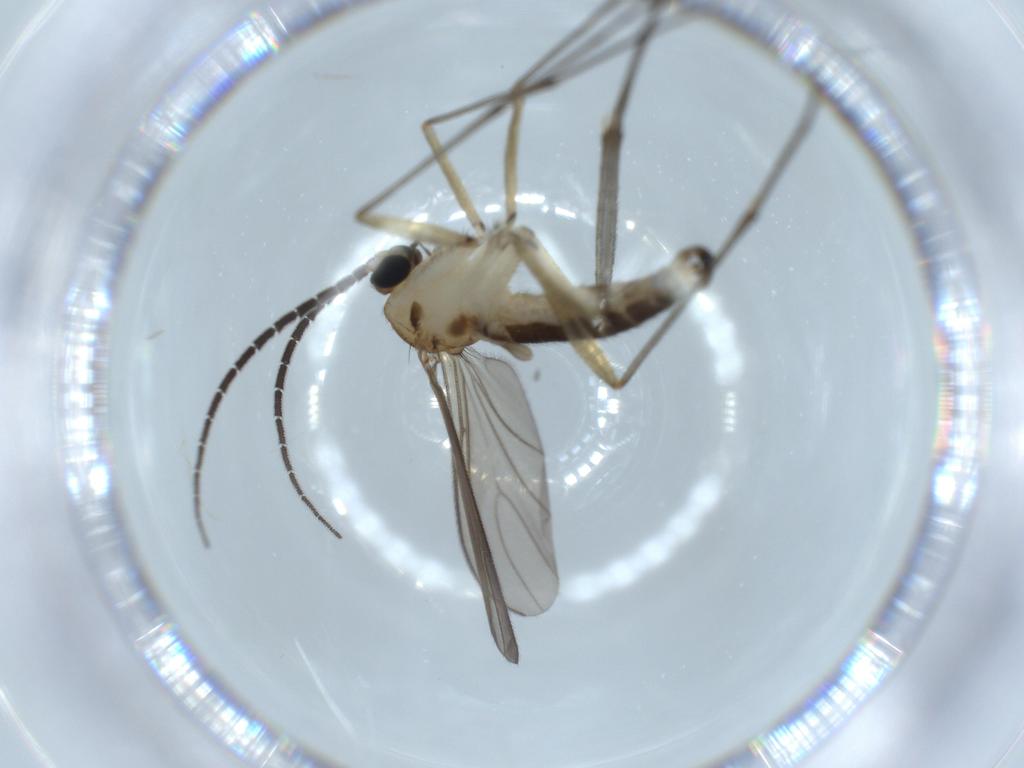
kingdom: Animalia
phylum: Arthropoda
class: Insecta
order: Diptera
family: Sciaridae
